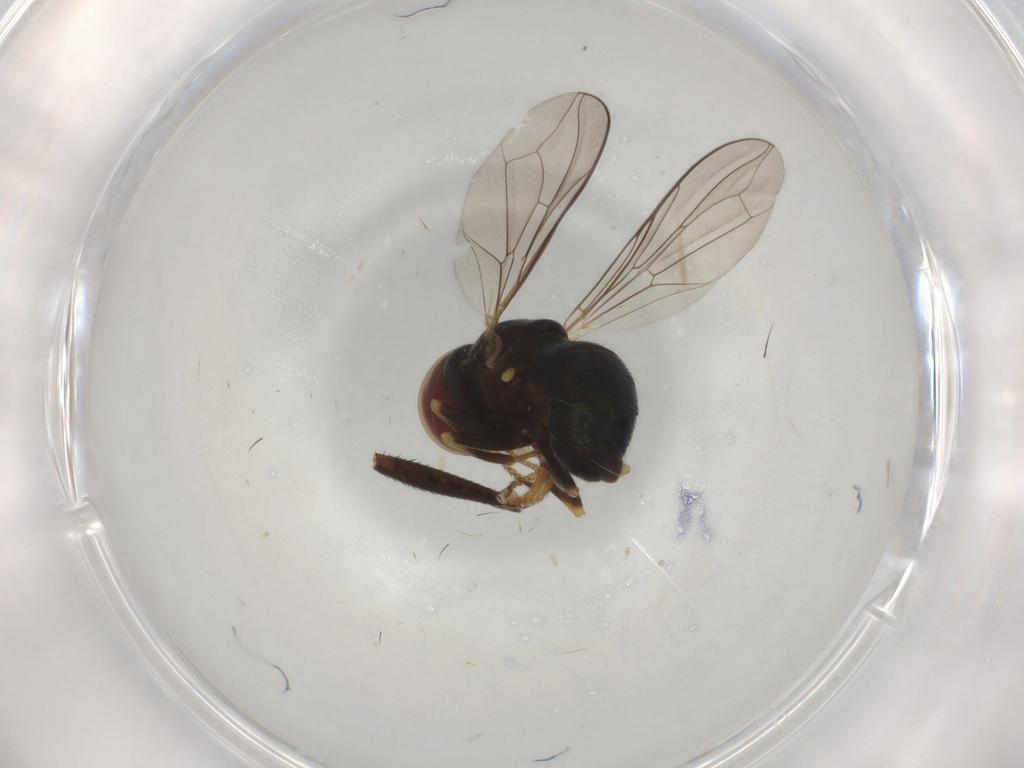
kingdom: Animalia
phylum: Arthropoda
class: Insecta
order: Diptera
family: Pipunculidae
